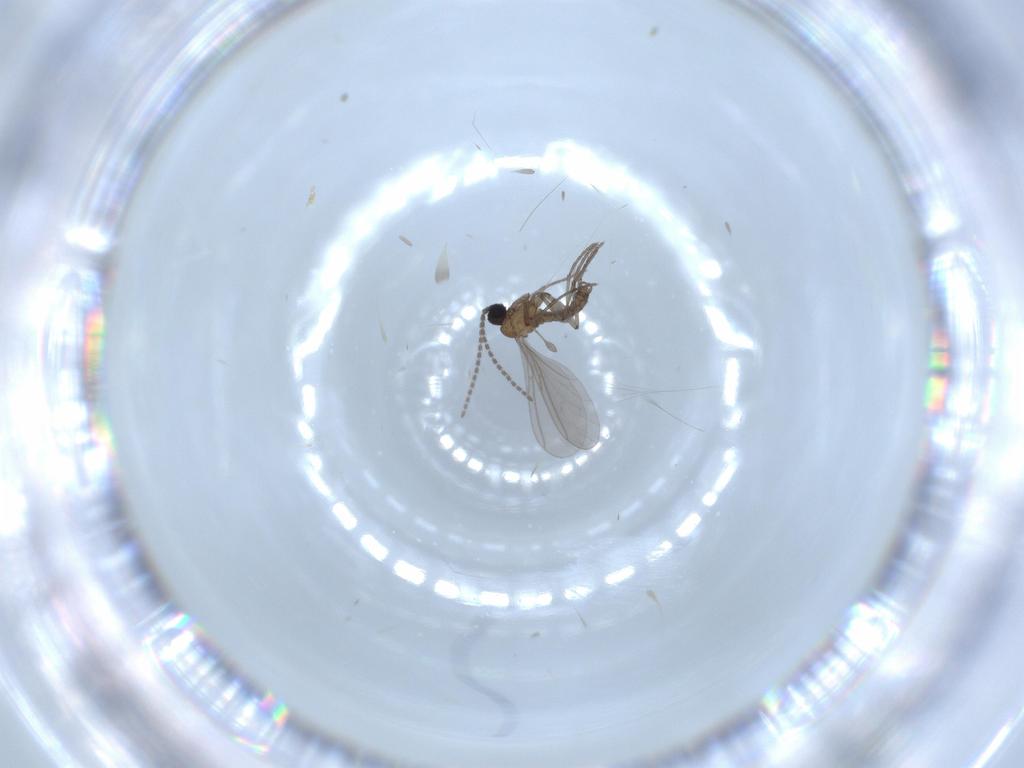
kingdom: Animalia
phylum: Arthropoda
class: Insecta
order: Diptera
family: Sciaridae
